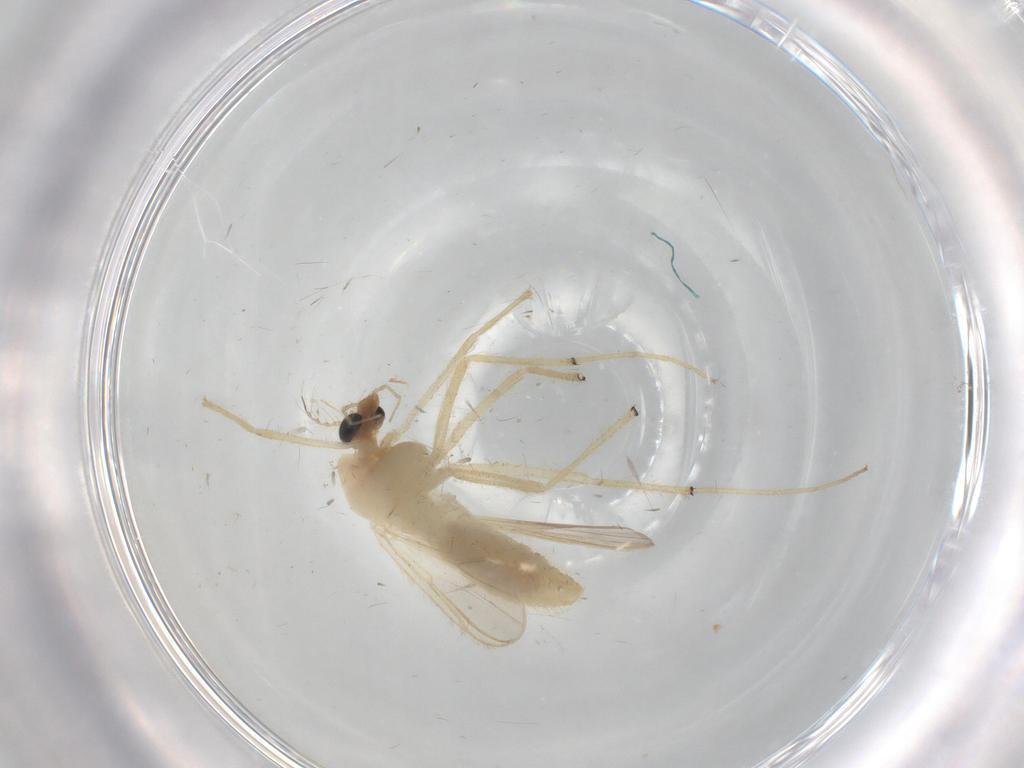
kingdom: Animalia
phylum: Arthropoda
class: Insecta
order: Diptera
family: Chironomidae
